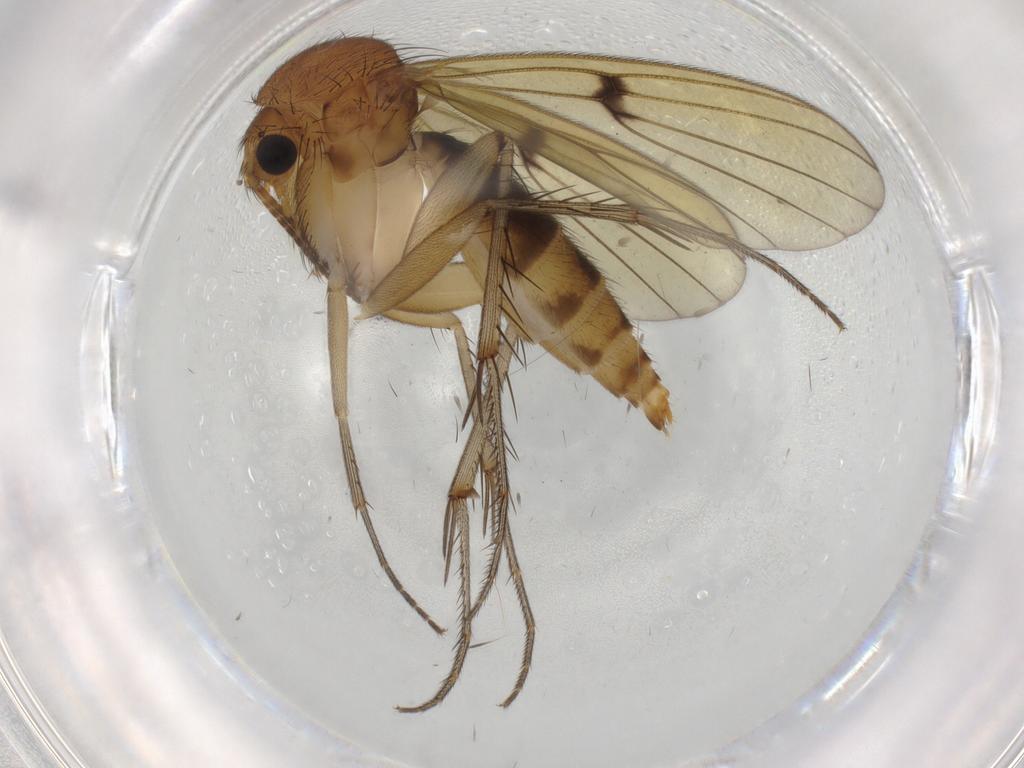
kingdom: Animalia
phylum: Arthropoda
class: Insecta
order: Diptera
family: Mycetophilidae
